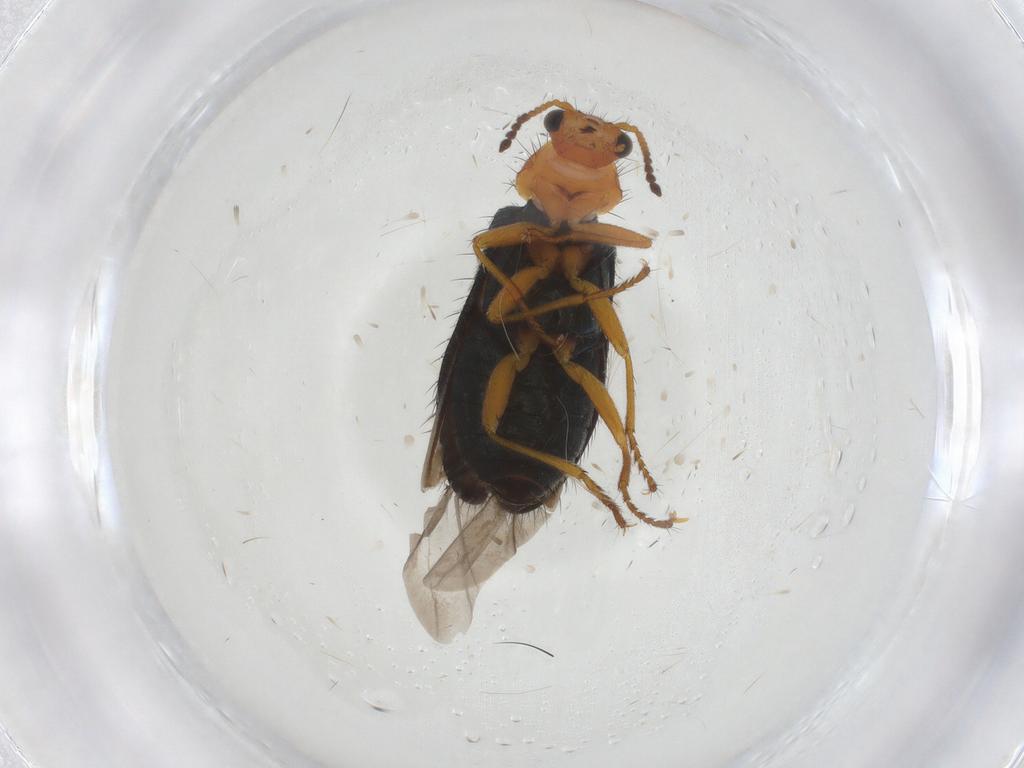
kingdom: Animalia
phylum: Arthropoda
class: Insecta
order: Coleoptera
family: Melyridae
